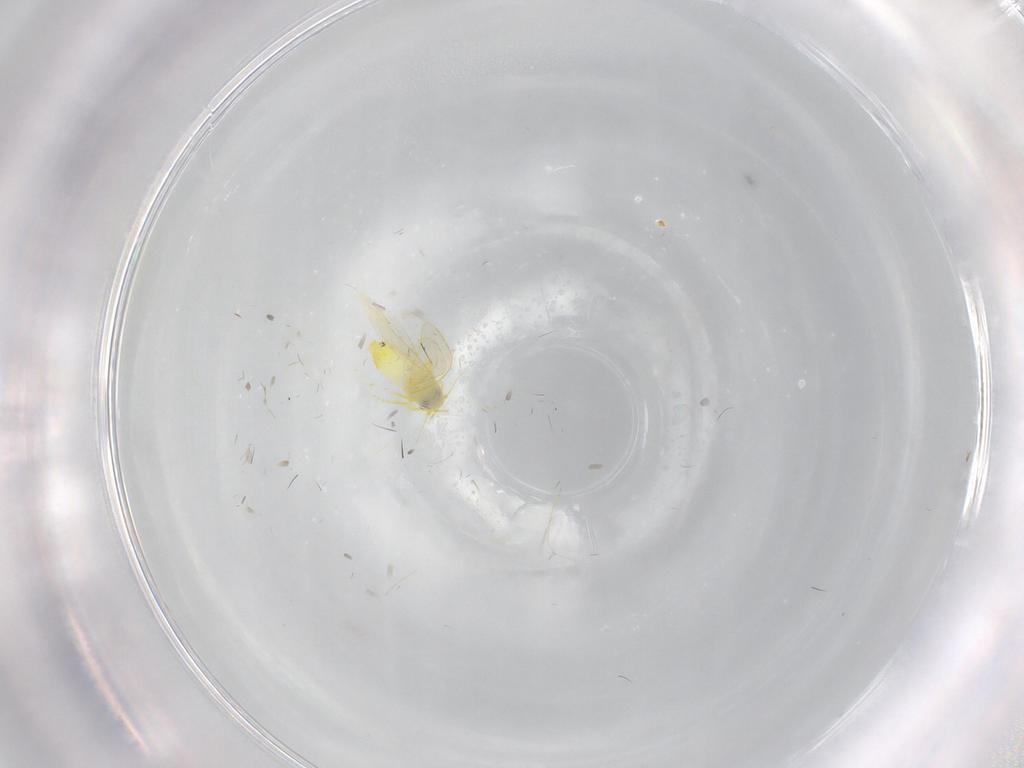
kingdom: Animalia
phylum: Arthropoda
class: Insecta
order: Hemiptera
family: Aleyrodidae
